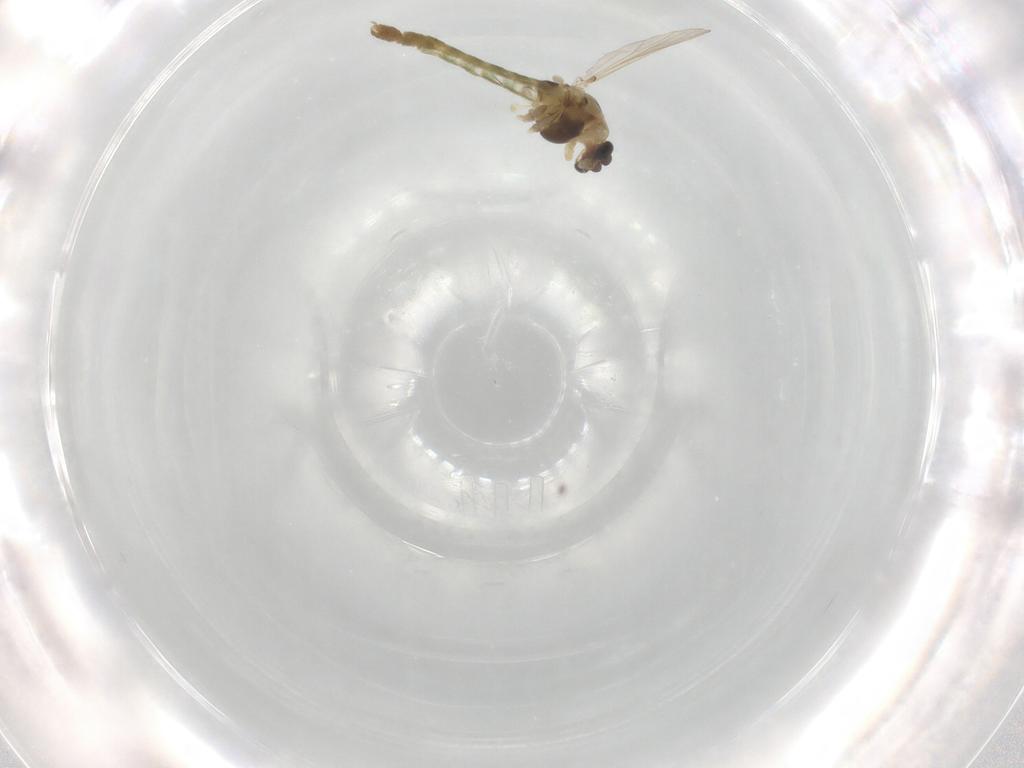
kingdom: Animalia
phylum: Arthropoda
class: Insecta
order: Diptera
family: Chironomidae
